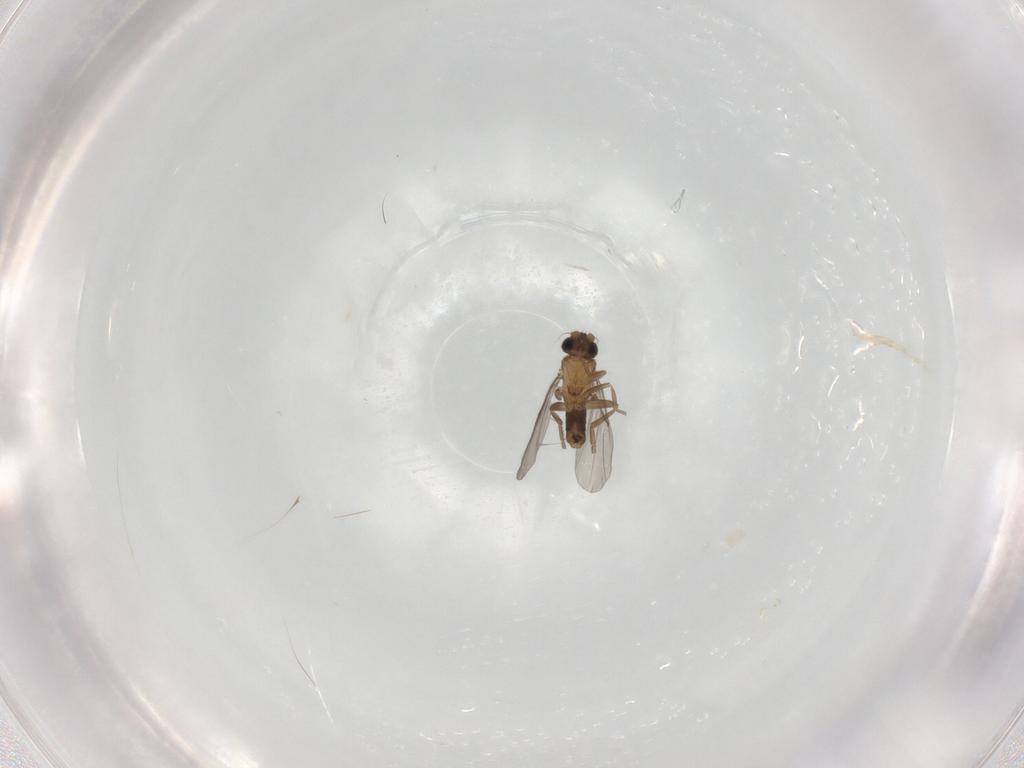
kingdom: Animalia
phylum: Arthropoda
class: Insecta
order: Diptera
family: Phoridae
